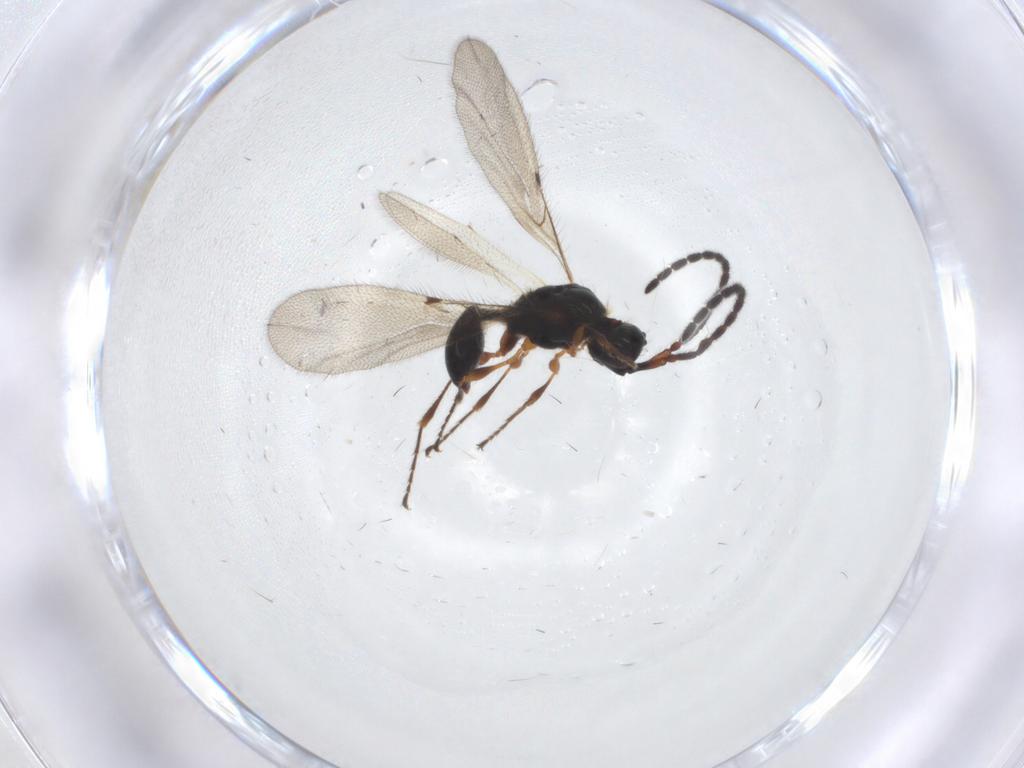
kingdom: Animalia
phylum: Arthropoda
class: Insecta
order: Hymenoptera
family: Diapriidae
